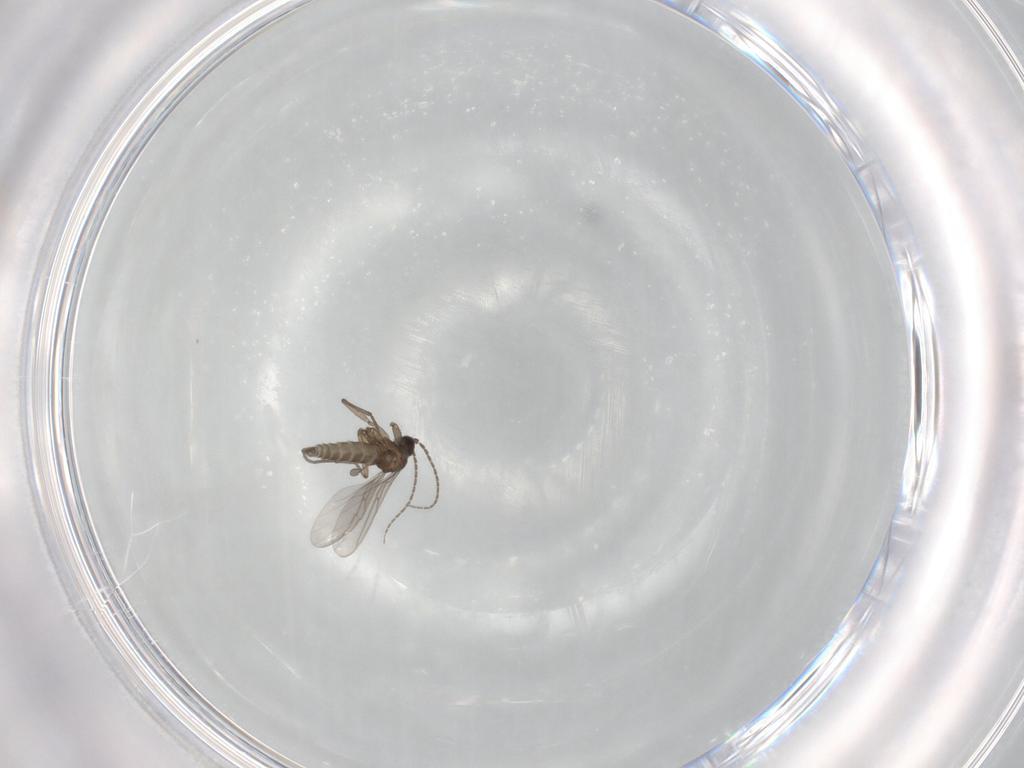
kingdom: Animalia
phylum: Arthropoda
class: Insecta
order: Diptera
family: Sciaridae
